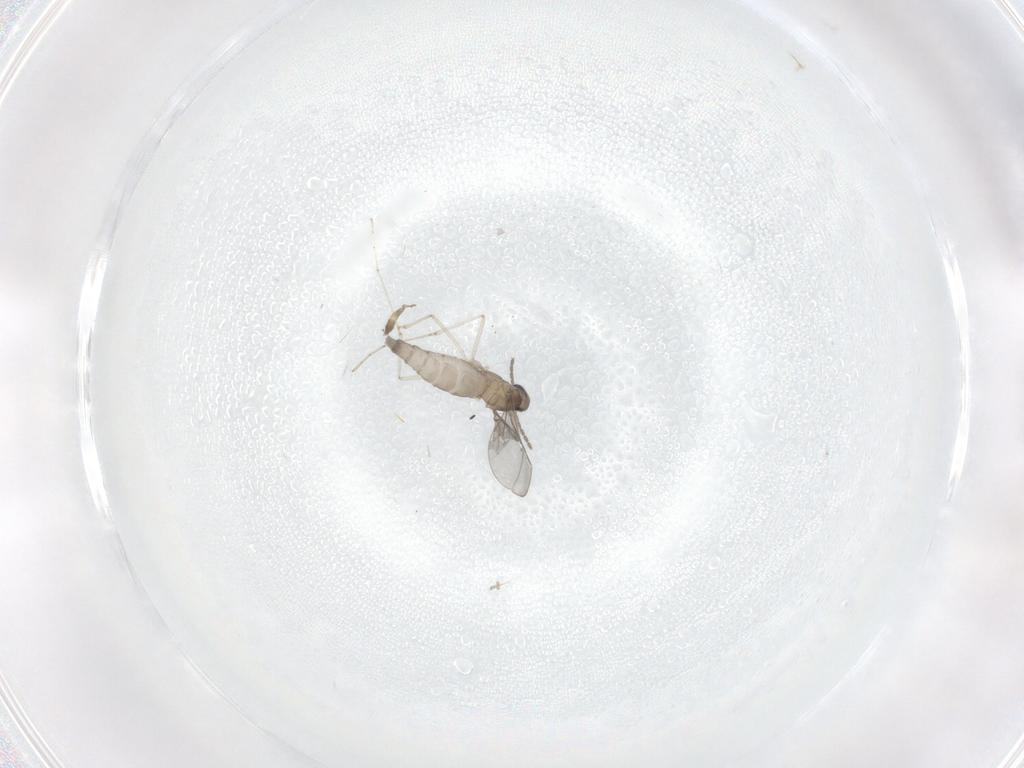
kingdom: Animalia
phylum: Arthropoda
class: Insecta
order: Diptera
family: Cecidomyiidae
